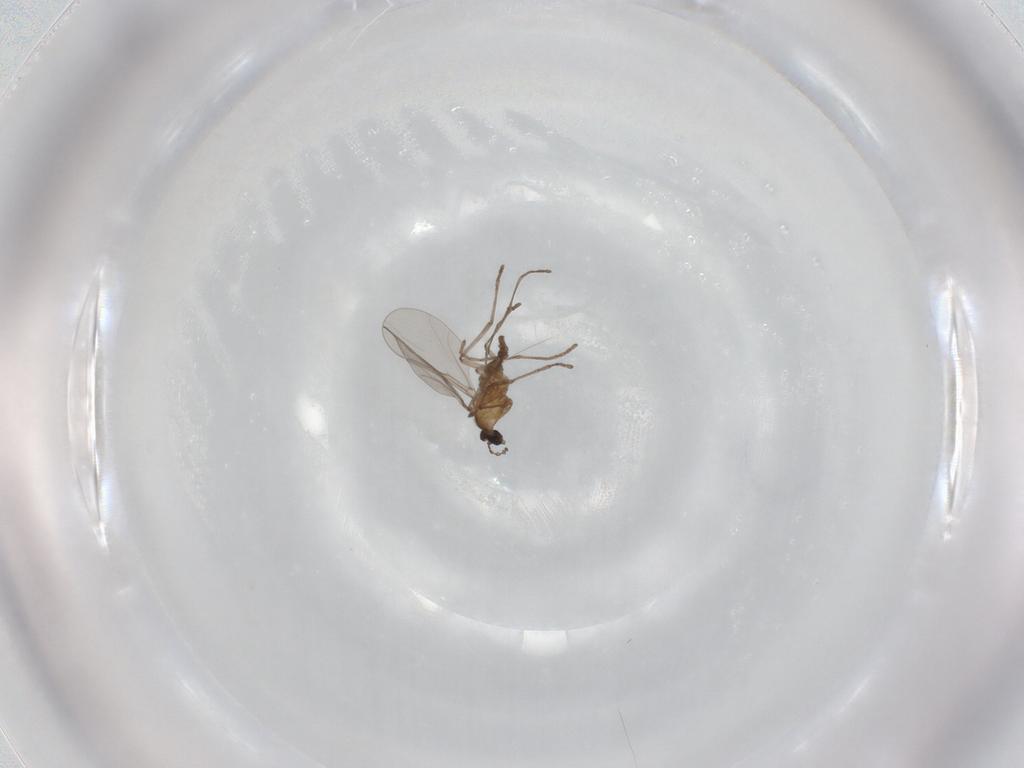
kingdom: Animalia
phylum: Arthropoda
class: Insecta
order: Diptera
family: Cecidomyiidae
